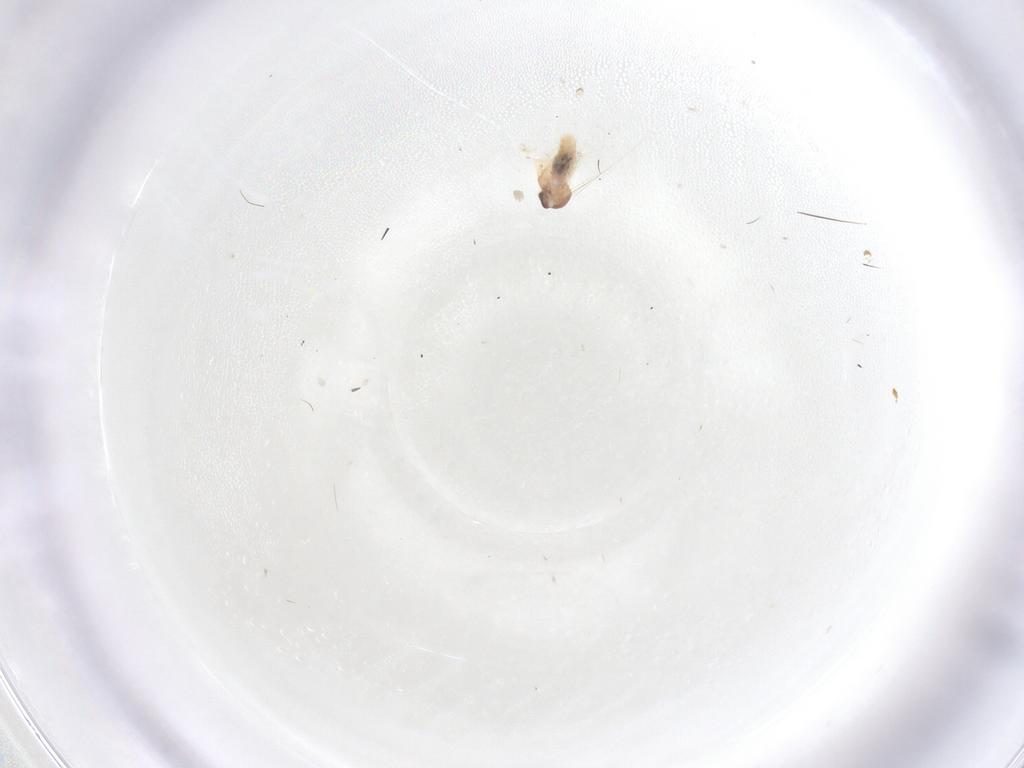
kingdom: Animalia
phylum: Arthropoda
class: Insecta
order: Diptera
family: Cecidomyiidae
